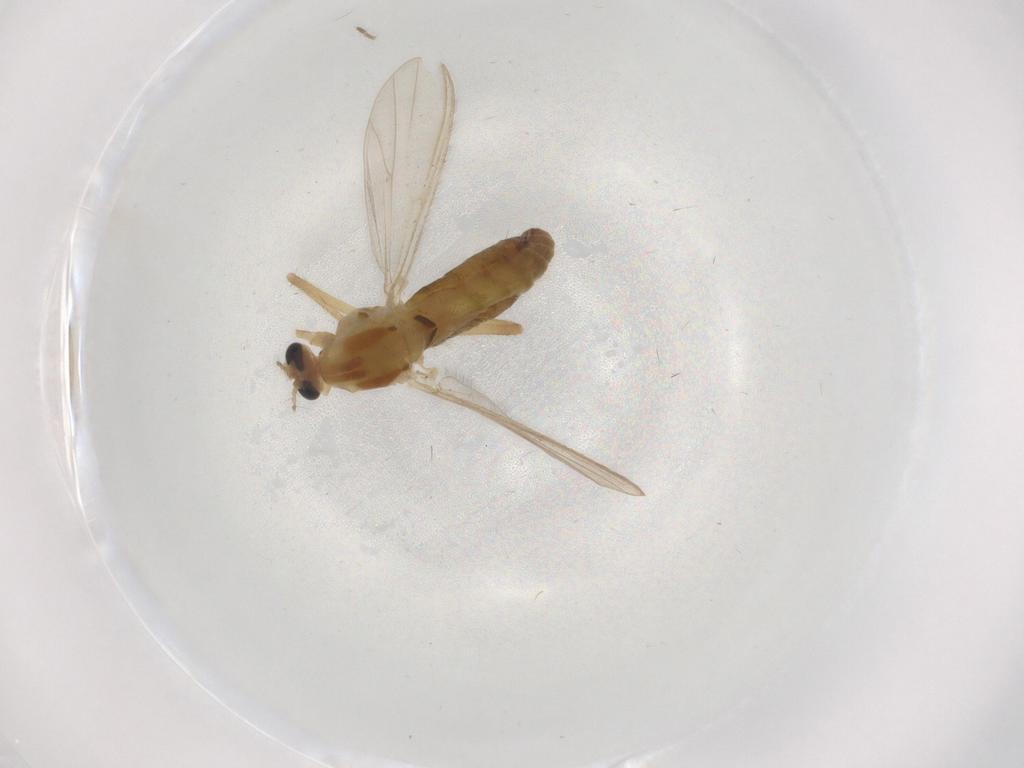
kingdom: Animalia
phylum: Arthropoda
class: Insecta
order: Diptera
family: Chironomidae
